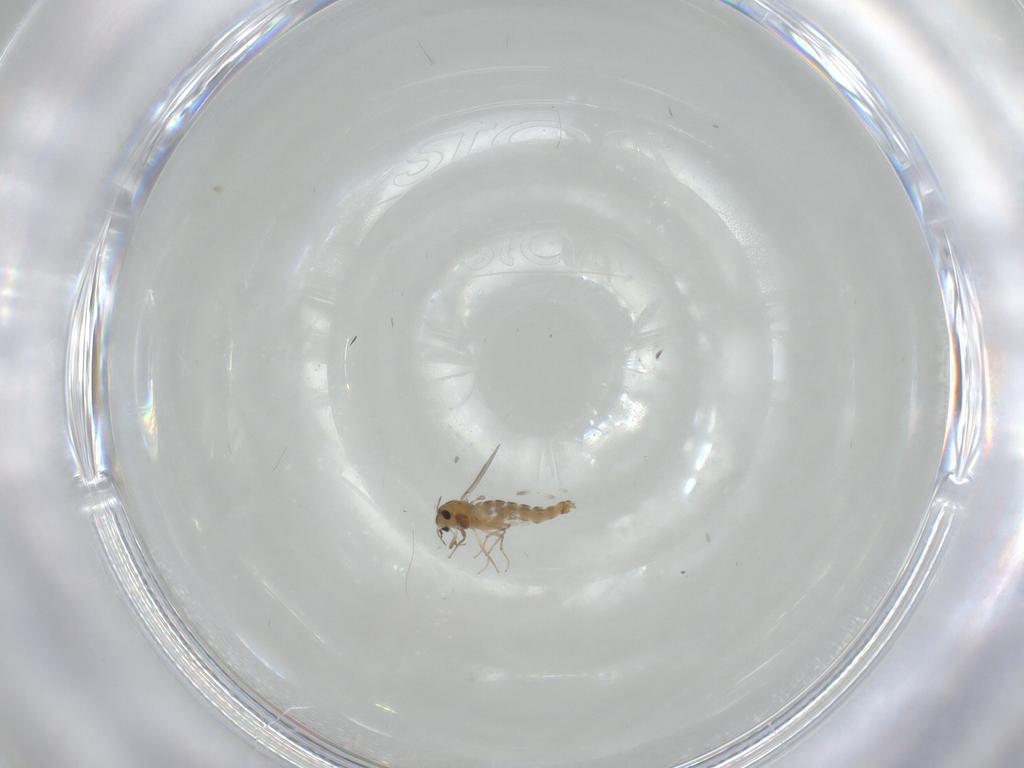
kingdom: Animalia
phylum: Arthropoda
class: Insecta
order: Diptera
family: Chironomidae
